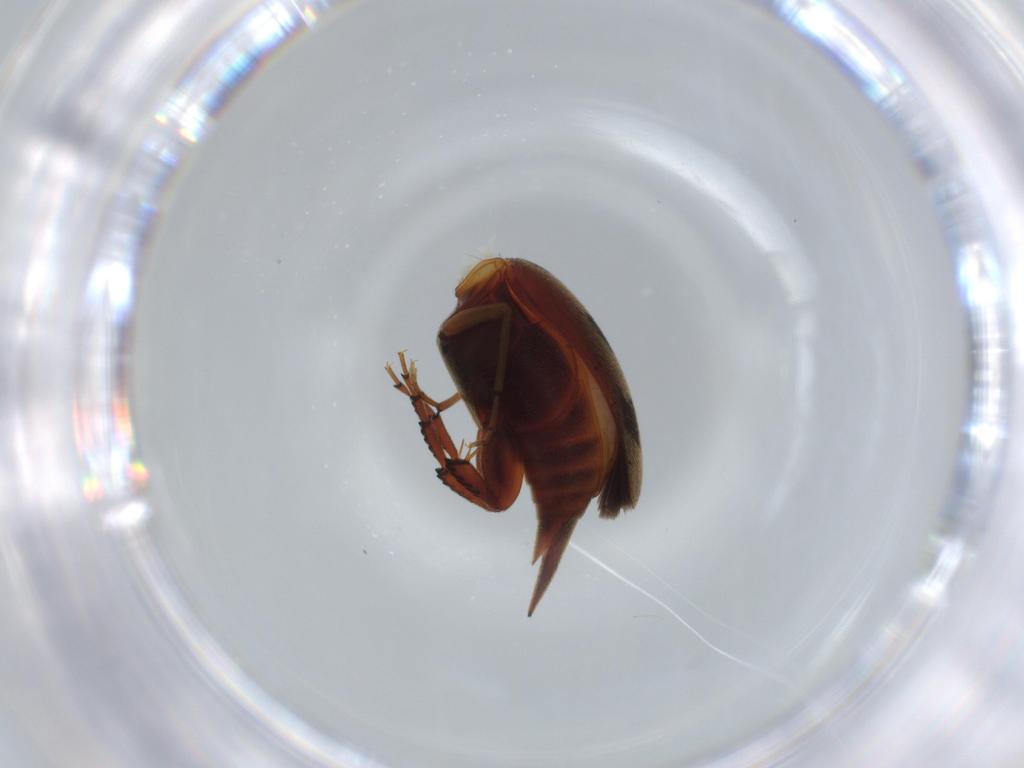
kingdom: Animalia
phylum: Arthropoda
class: Insecta
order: Coleoptera
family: Mordellidae
